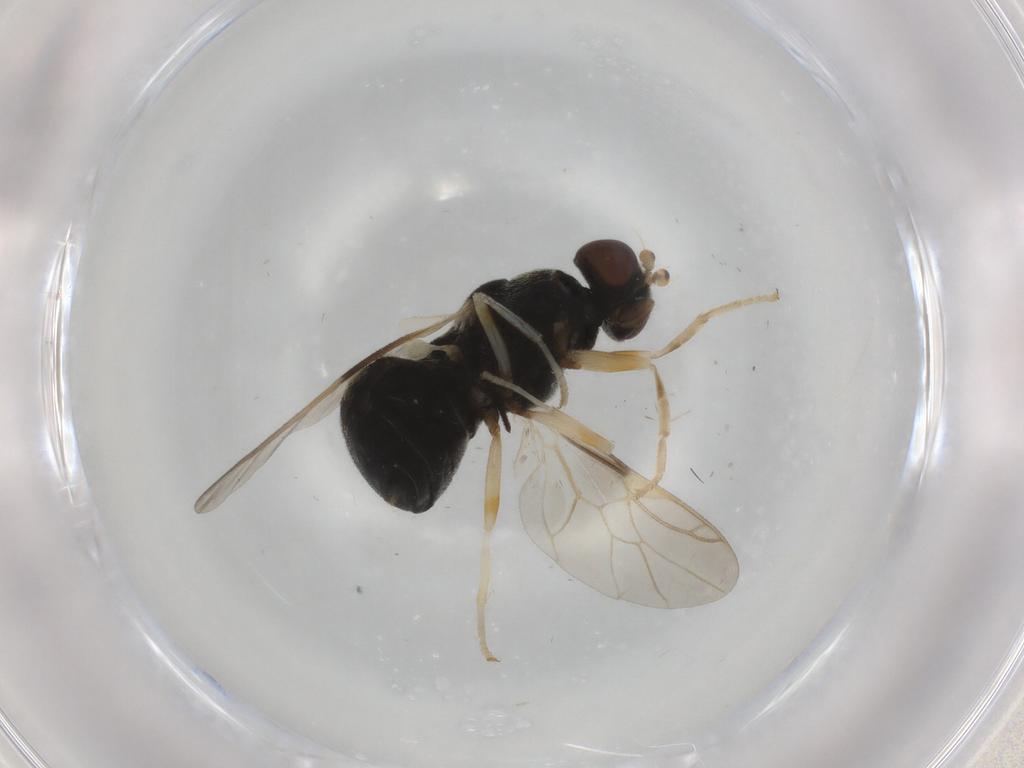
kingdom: Animalia
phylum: Arthropoda
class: Insecta
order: Diptera
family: Stratiomyidae
